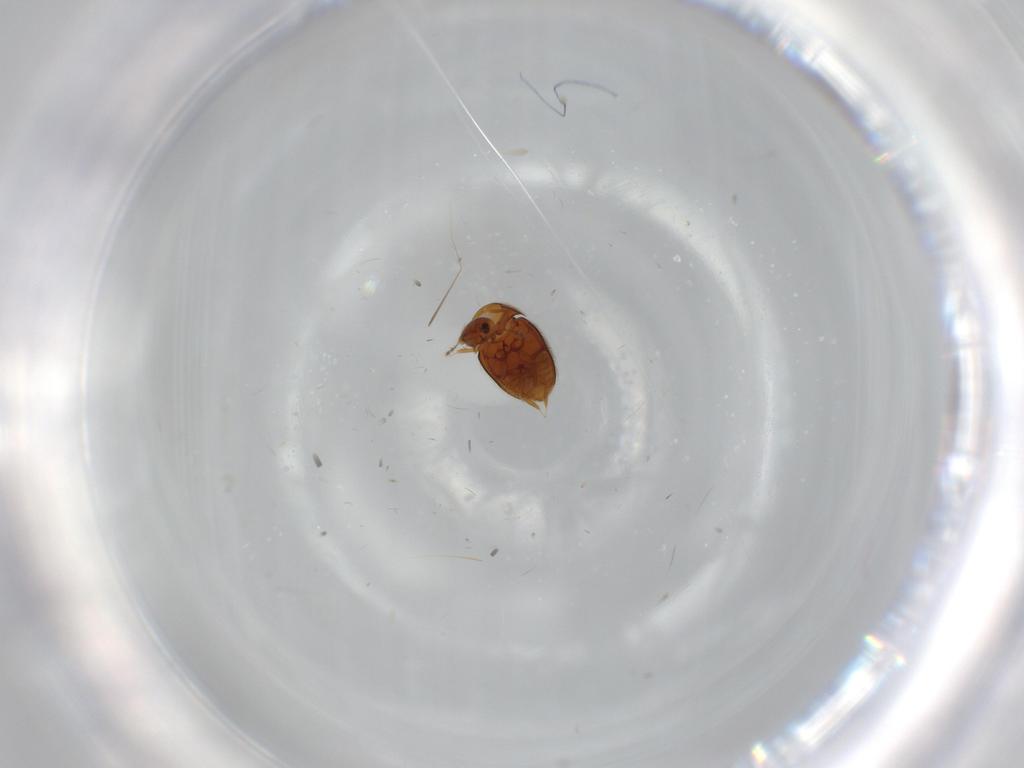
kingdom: Animalia
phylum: Arthropoda
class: Insecta
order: Coleoptera
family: Ptiliidae
